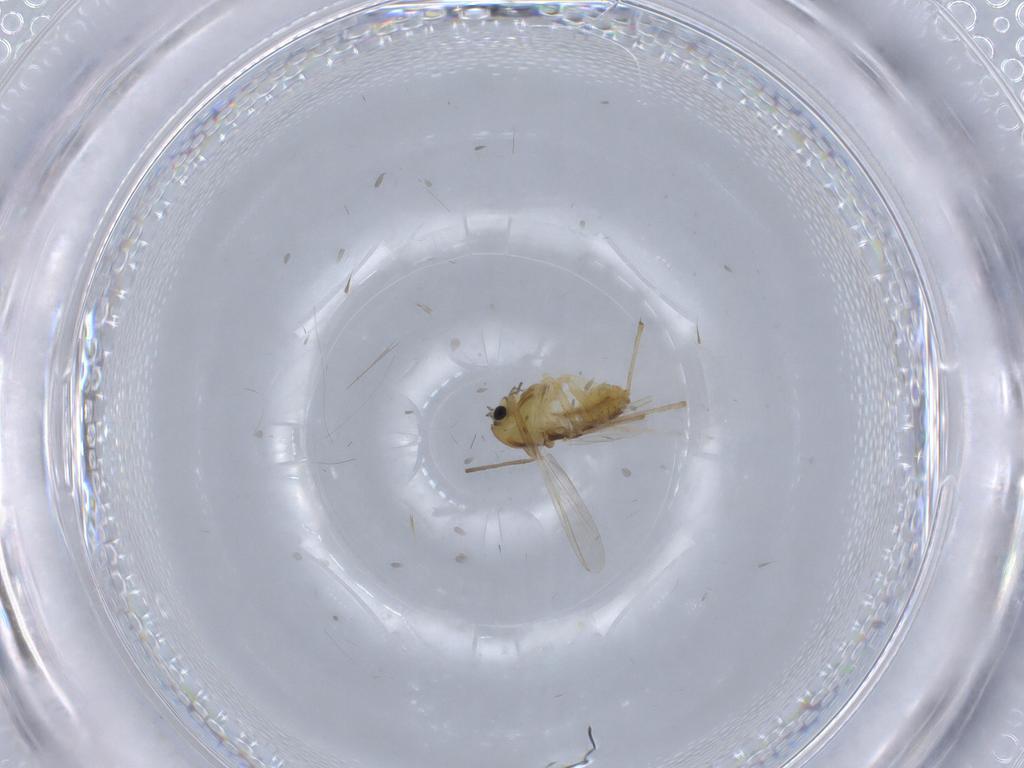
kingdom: Animalia
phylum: Arthropoda
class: Insecta
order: Diptera
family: Chironomidae
